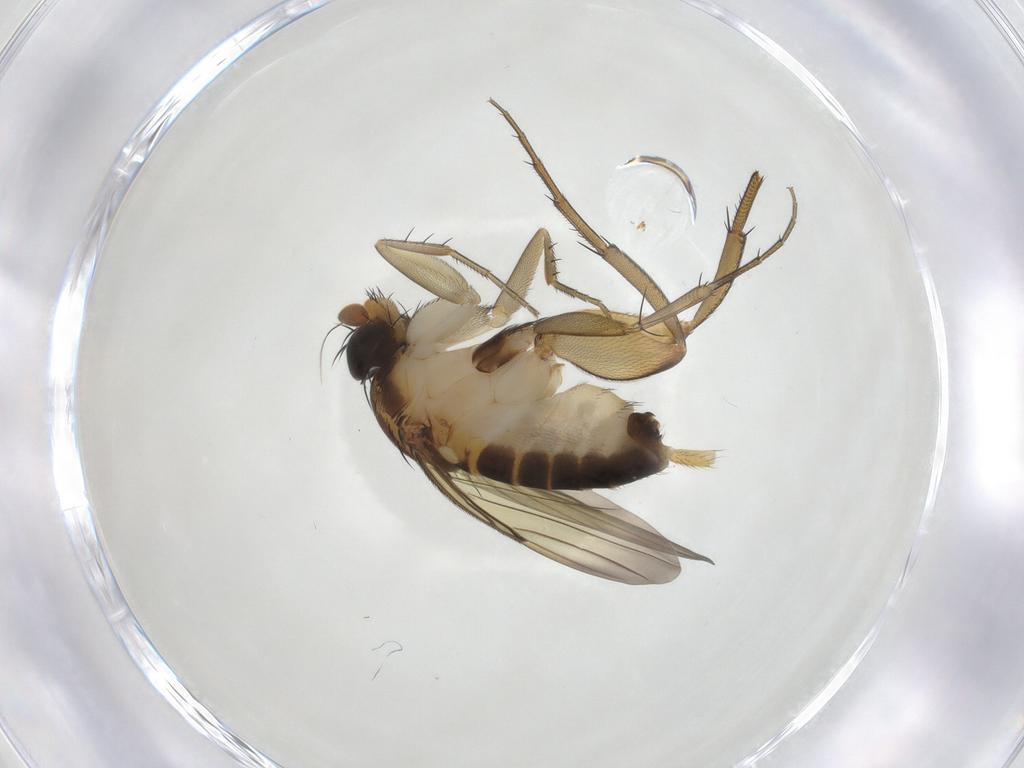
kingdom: Animalia
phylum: Arthropoda
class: Insecta
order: Diptera
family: Phoridae
